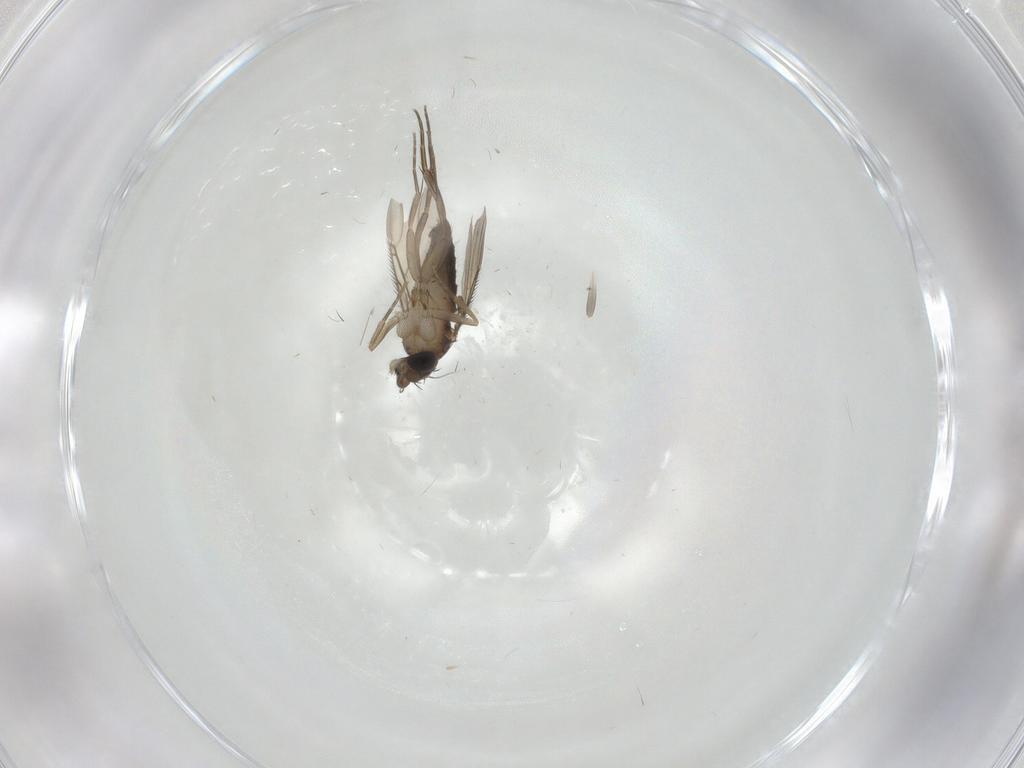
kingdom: Animalia
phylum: Arthropoda
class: Insecta
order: Diptera
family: Phoridae
